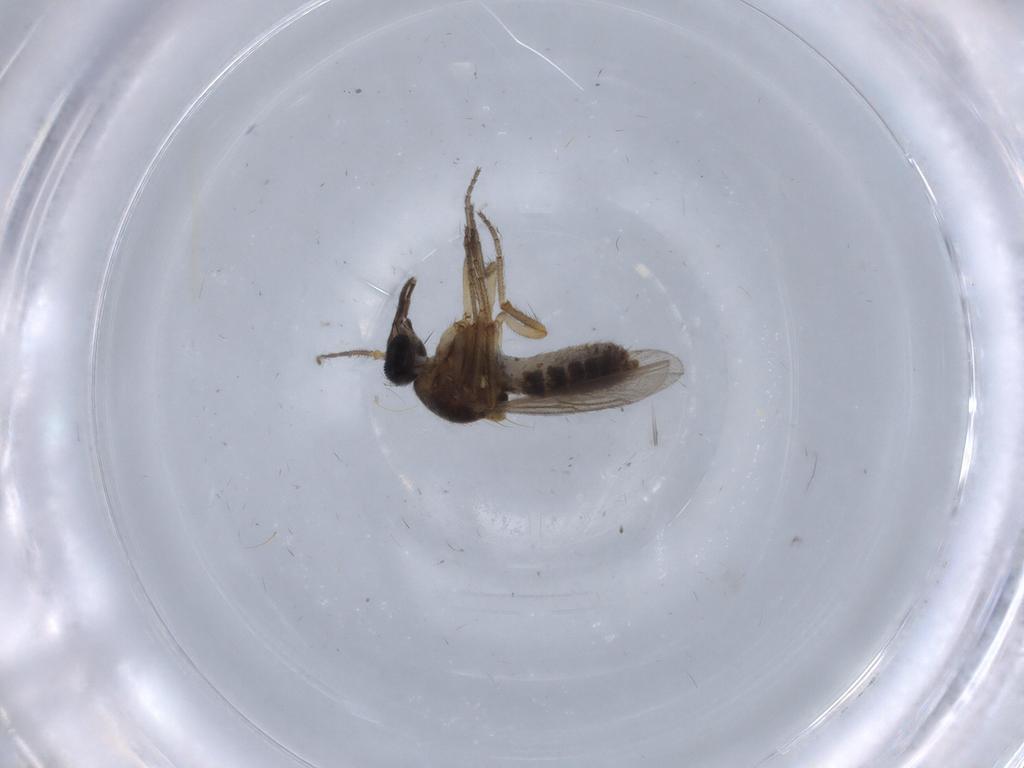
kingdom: Animalia
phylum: Arthropoda
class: Insecta
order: Diptera
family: Ceratopogonidae
